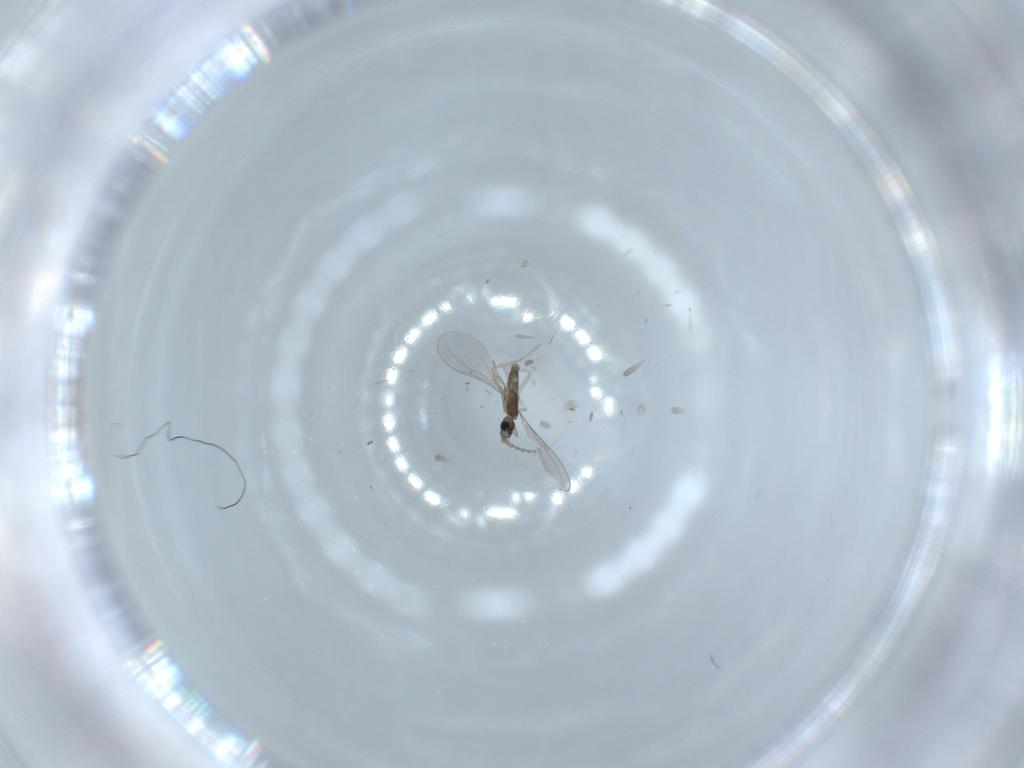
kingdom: Animalia
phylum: Arthropoda
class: Insecta
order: Diptera
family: Cecidomyiidae
